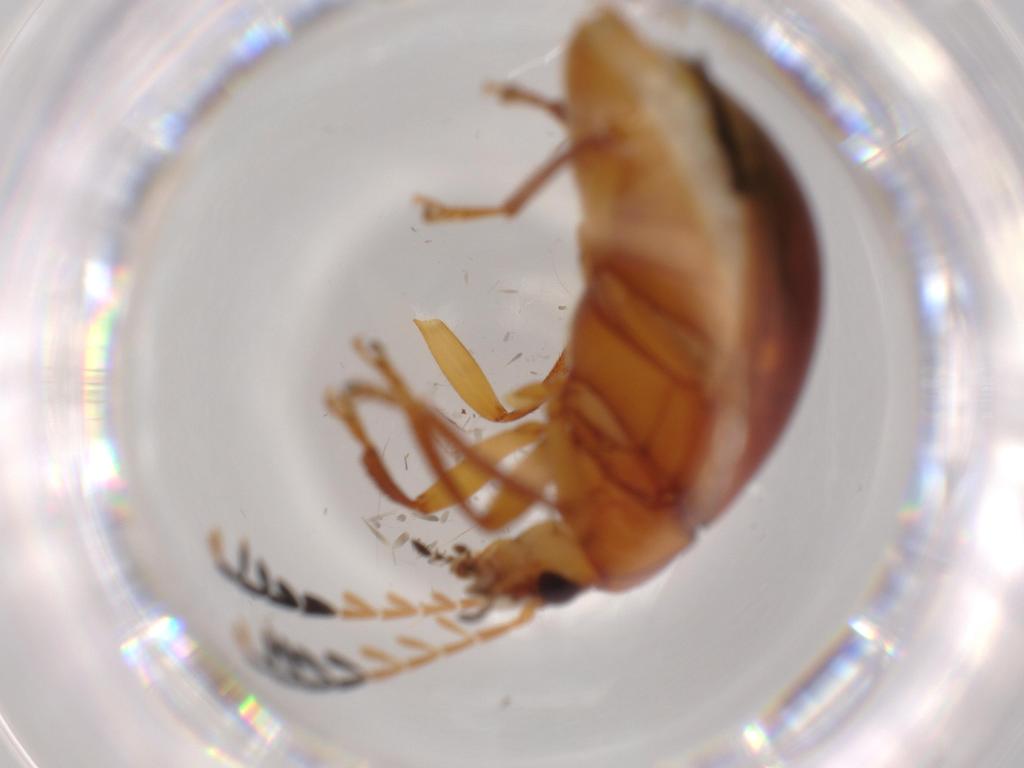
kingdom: Animalia
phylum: Arthropoda
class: Insecta
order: Coleoptera
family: Ptilodactylidae
